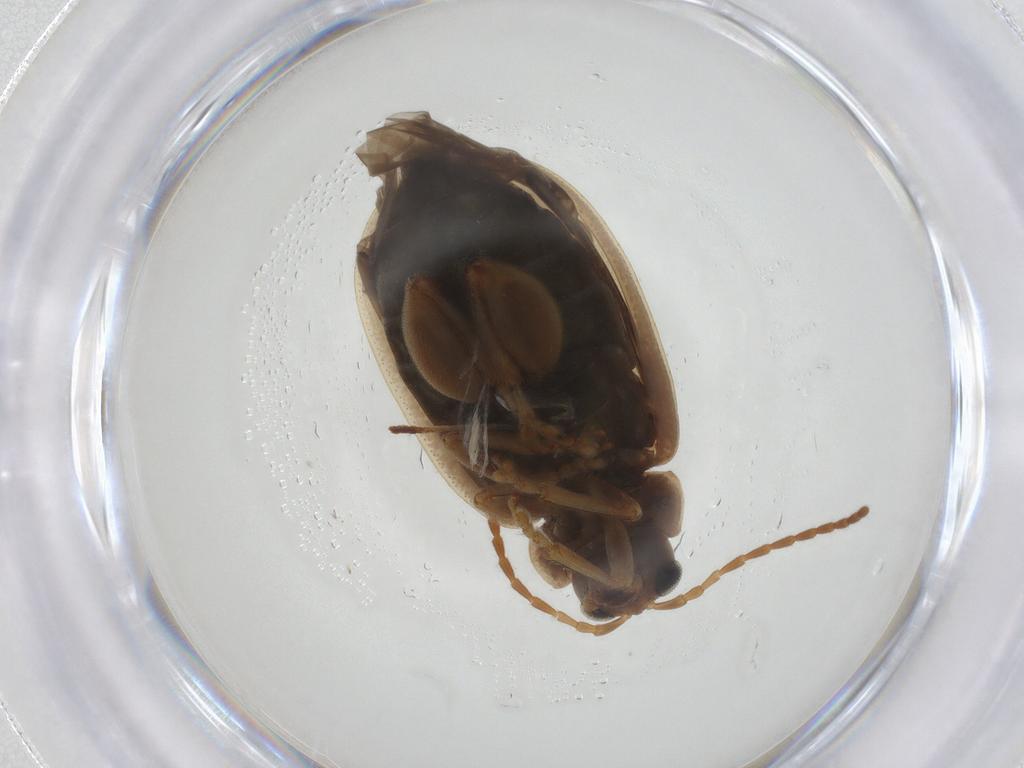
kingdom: Animalia
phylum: Arthropoda
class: Insecta
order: Coleoptera
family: Chrysomelidae
